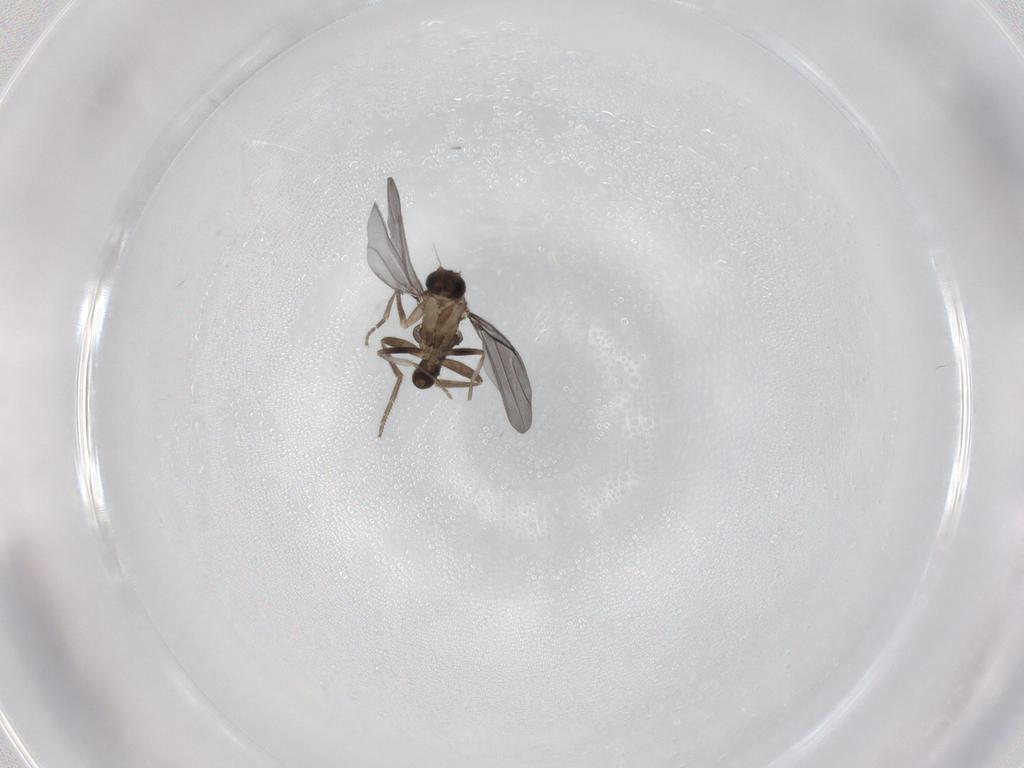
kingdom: Animalia
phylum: Arthropoda
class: Insecta
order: Diptera
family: Phoridae
